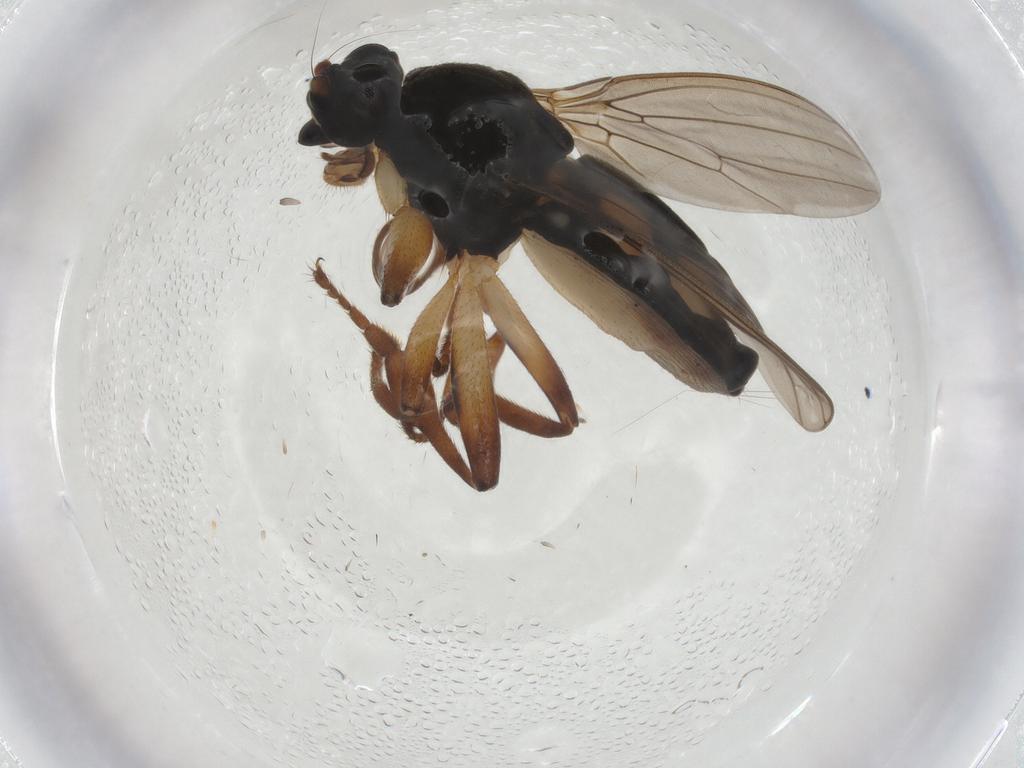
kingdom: Animalia
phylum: Arthropoda
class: Insecta
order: Diptera
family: Sphaeroceridae
